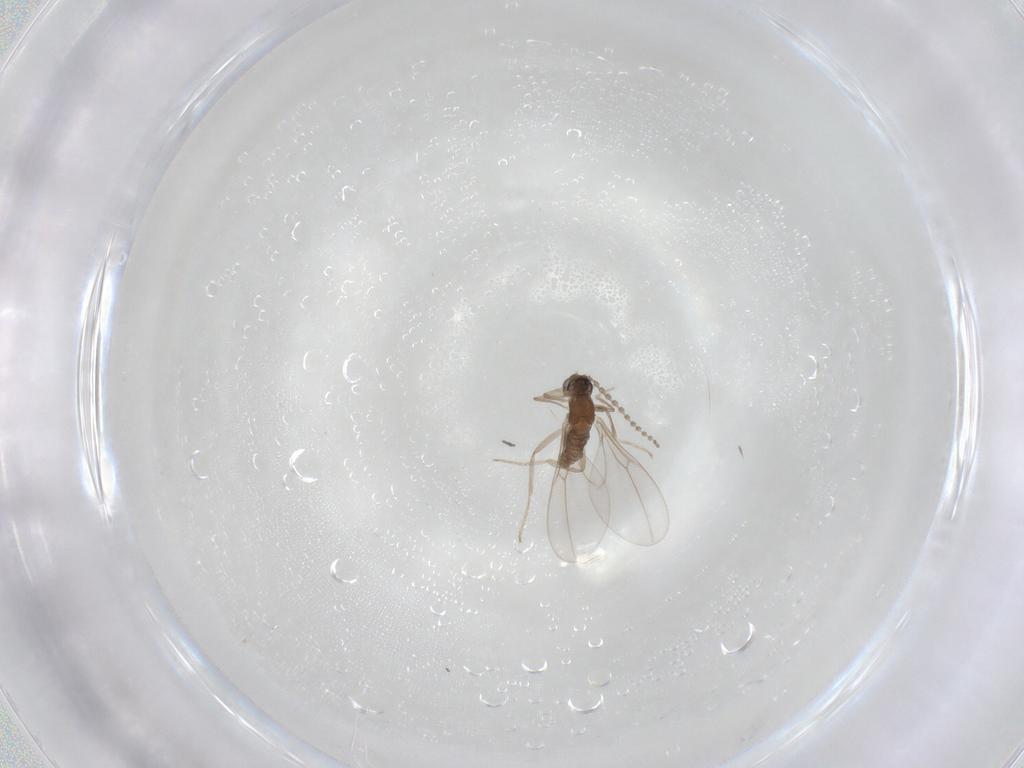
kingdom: Animalia
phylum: Arthropoda
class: Insecta
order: Diptera
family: Cecidomyiidae
